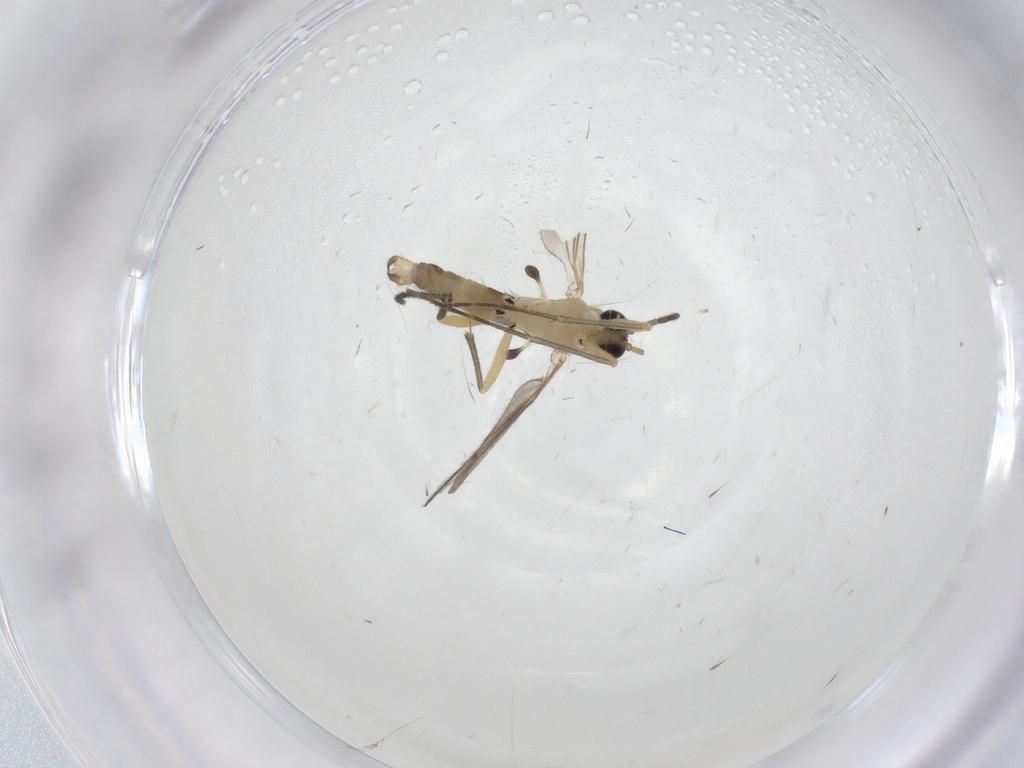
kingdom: Animalia
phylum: Arthropoda
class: Insecta
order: Diptera
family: Sciaridae
